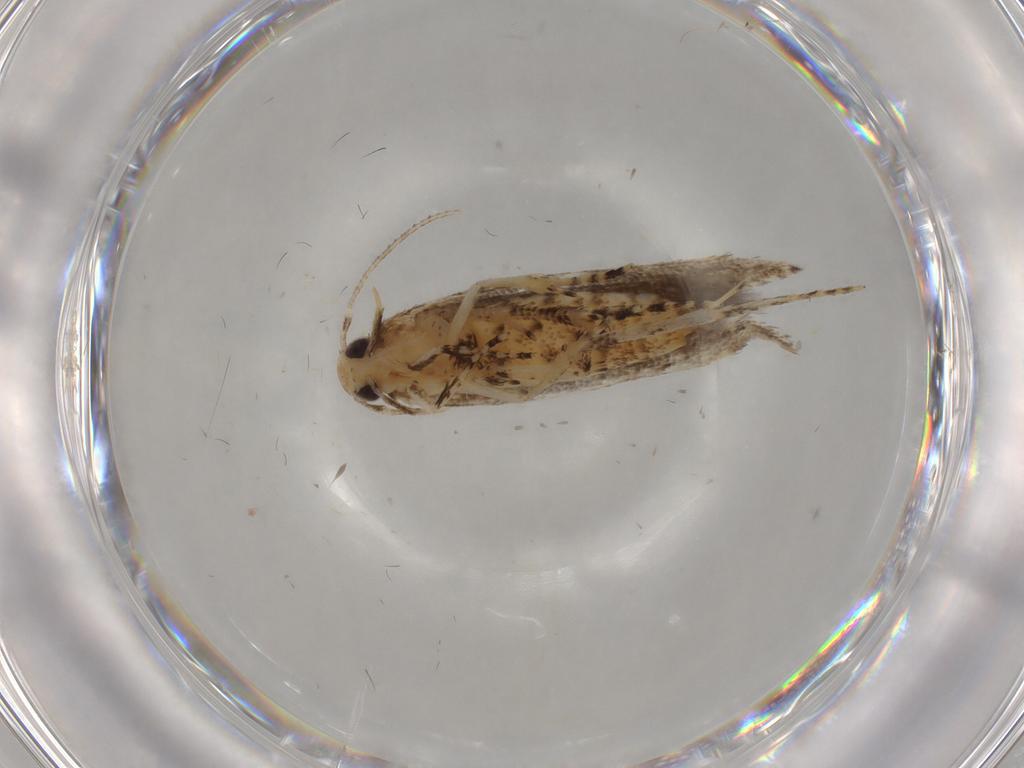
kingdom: Animalia
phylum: Arthropoda
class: Insecta
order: Lepidoptera
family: Cosmopterigidae
